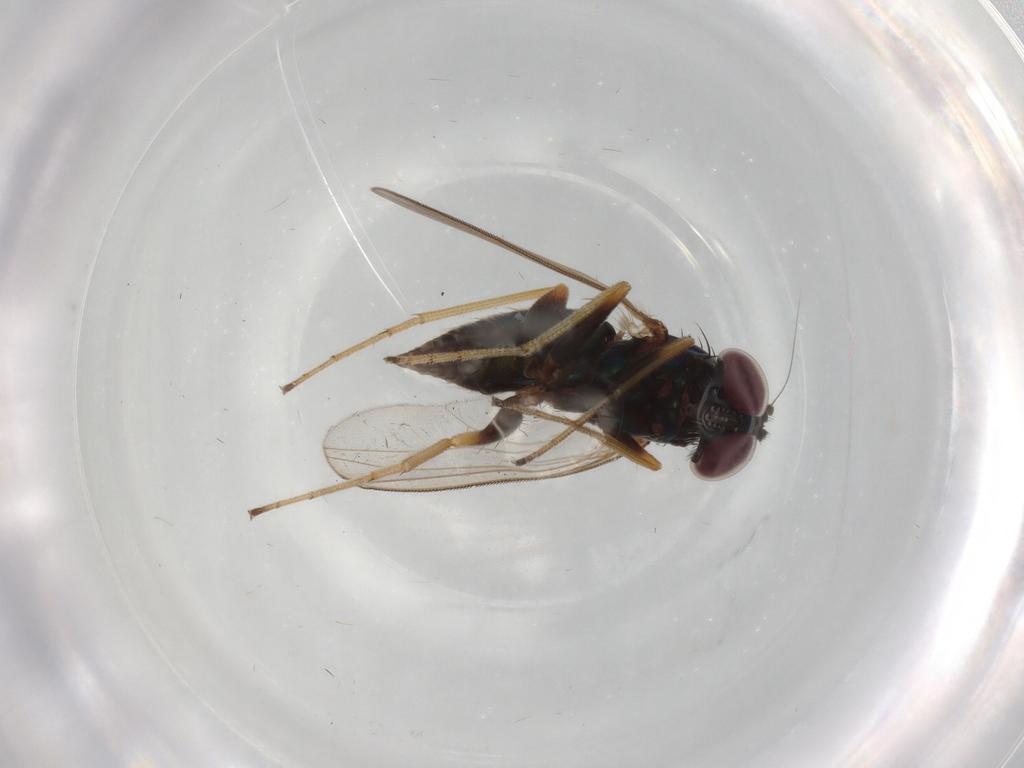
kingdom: Animalia
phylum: Arthropoda
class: Insecta
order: Diptera
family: Dolichopodidae
